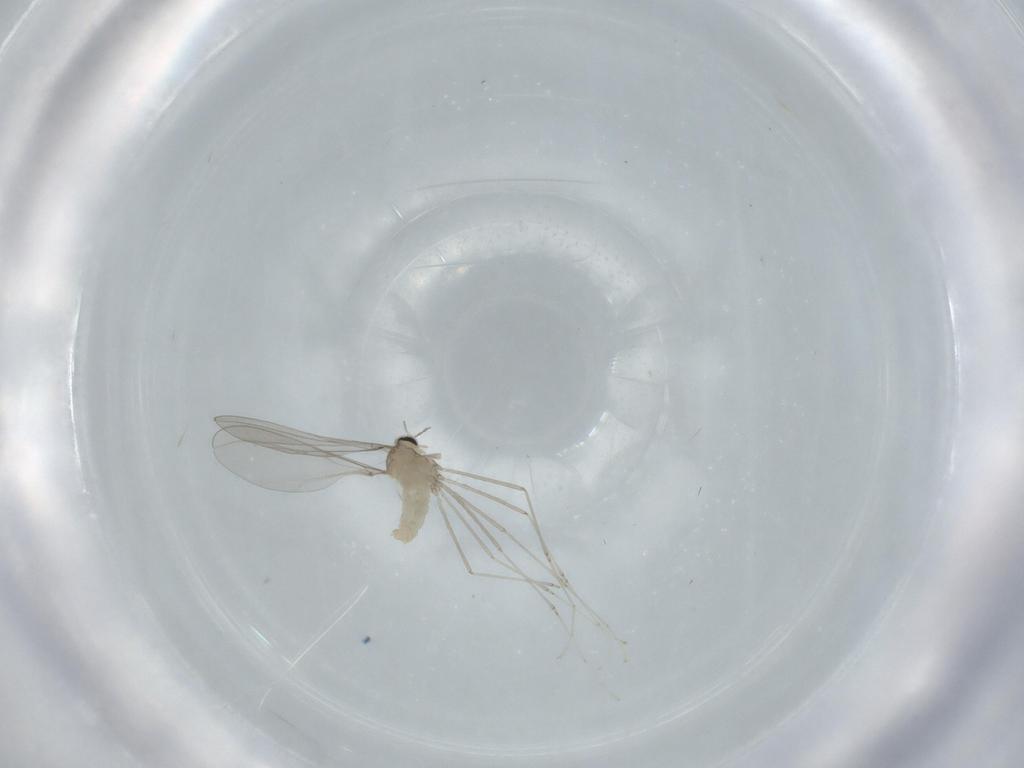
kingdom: Animalia
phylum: Arthropoda
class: Insecta
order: Diptera
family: Cecidomyiidae
